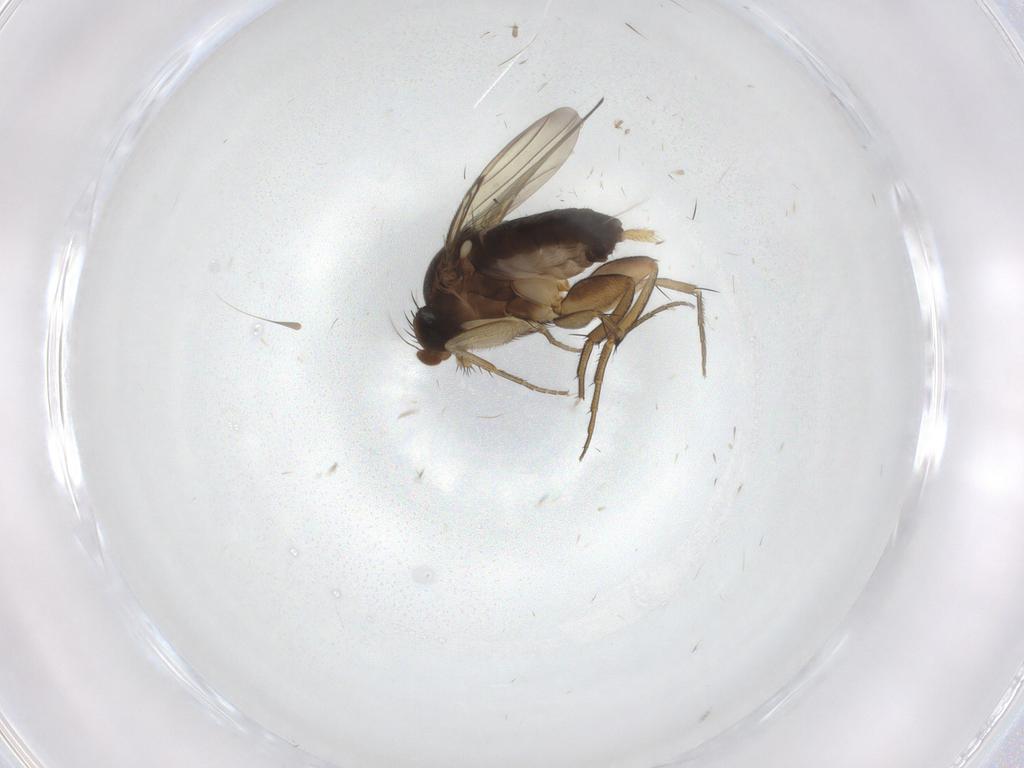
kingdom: Animalia
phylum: Arthropoda
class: Insecta
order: Diptera
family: Phoridae
